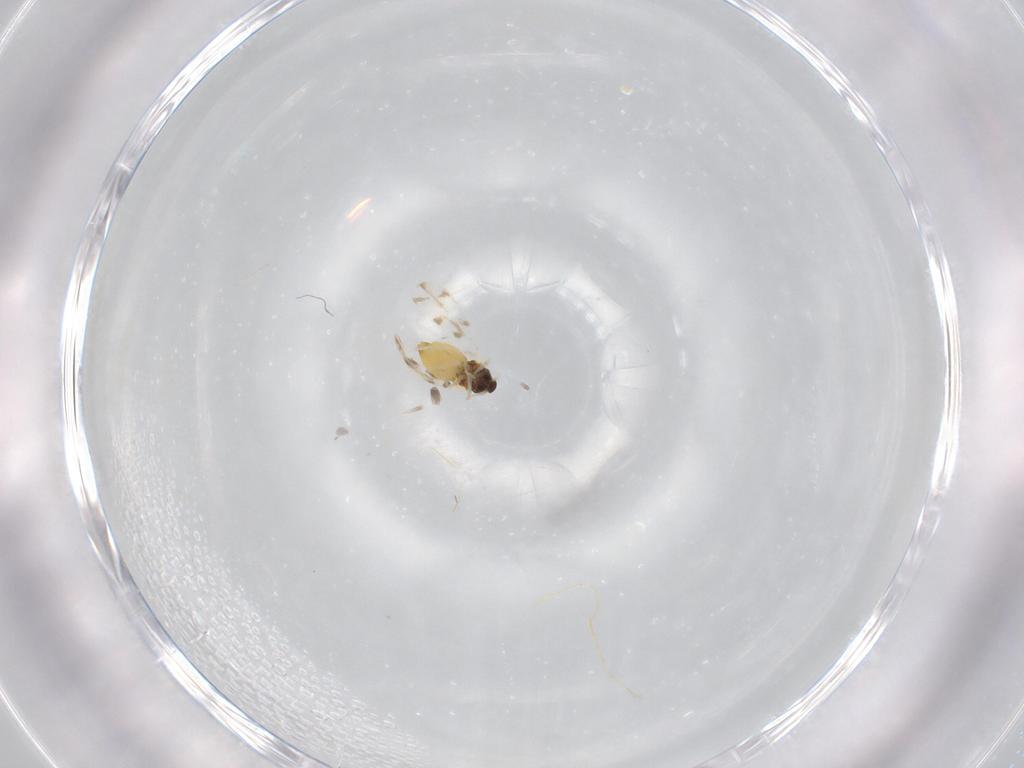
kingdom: Animalia
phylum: Arthropoda
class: Insecta
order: Hemiptera
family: Aleyrodidae
